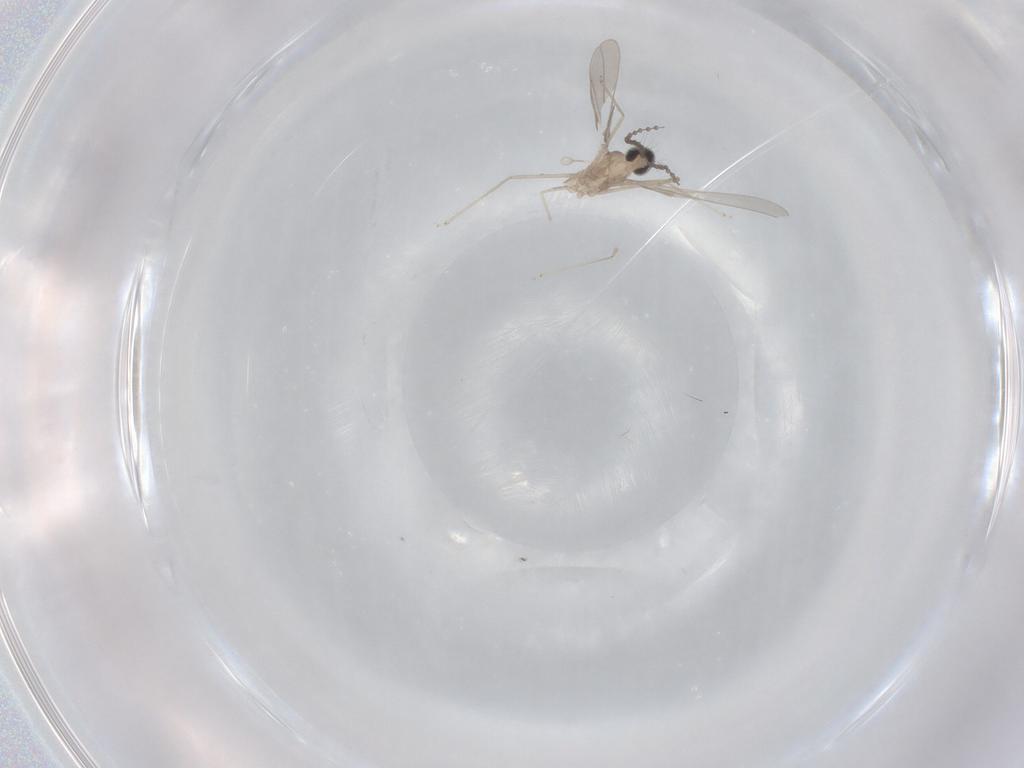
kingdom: Animalia
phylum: Arthropoda
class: Insecta
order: Diptera
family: Cecidomyiidae
